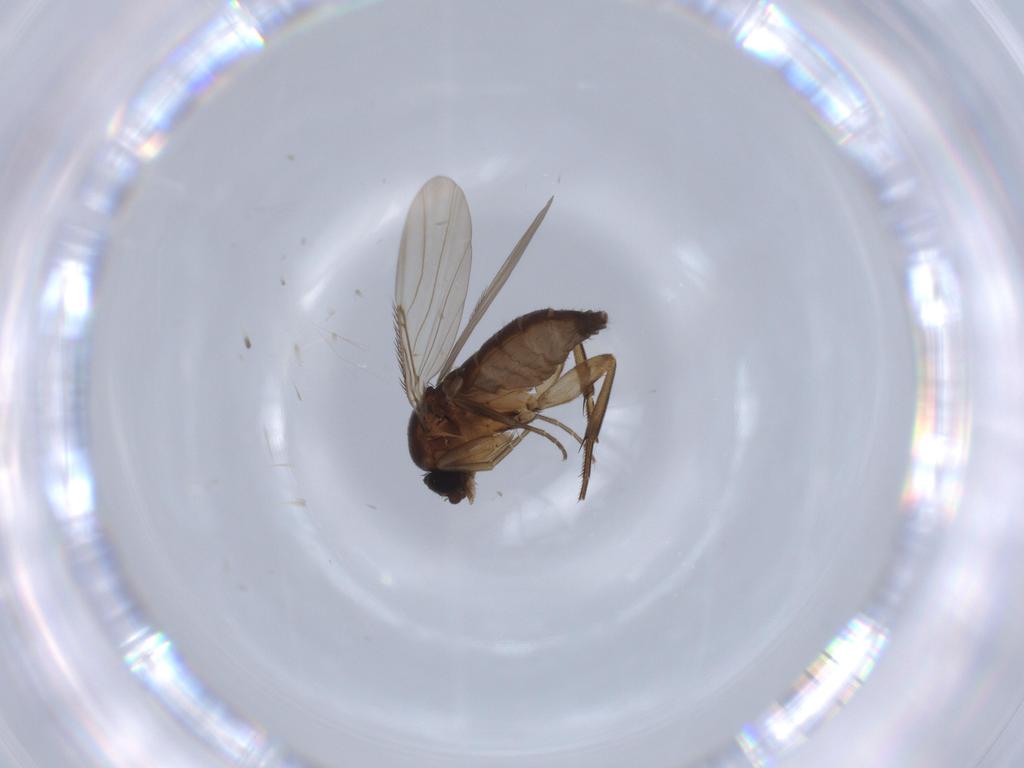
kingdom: Animalia
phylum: Arthropoda
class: Insecta
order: Diptera
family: Phoridae
